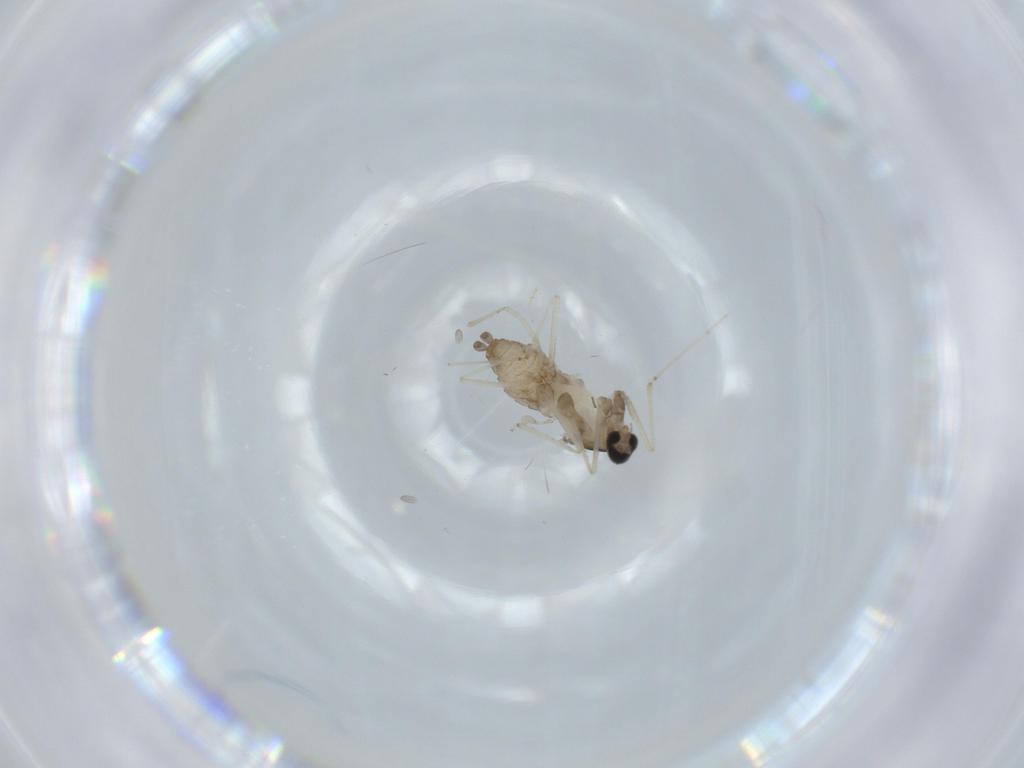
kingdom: Animalia
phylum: Arthropoda
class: Insecta
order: Diptera
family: Cecidomyiidae
